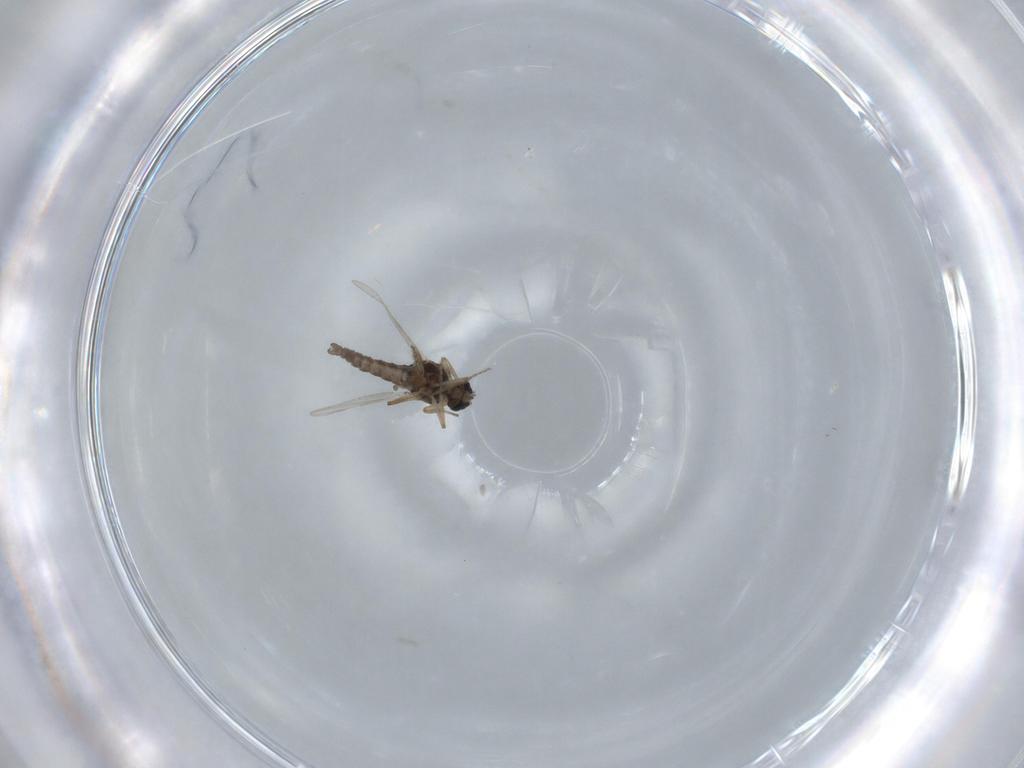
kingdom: Animalia
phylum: Arthropoda
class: Insecta
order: Diptera
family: Ceratopogonidae
